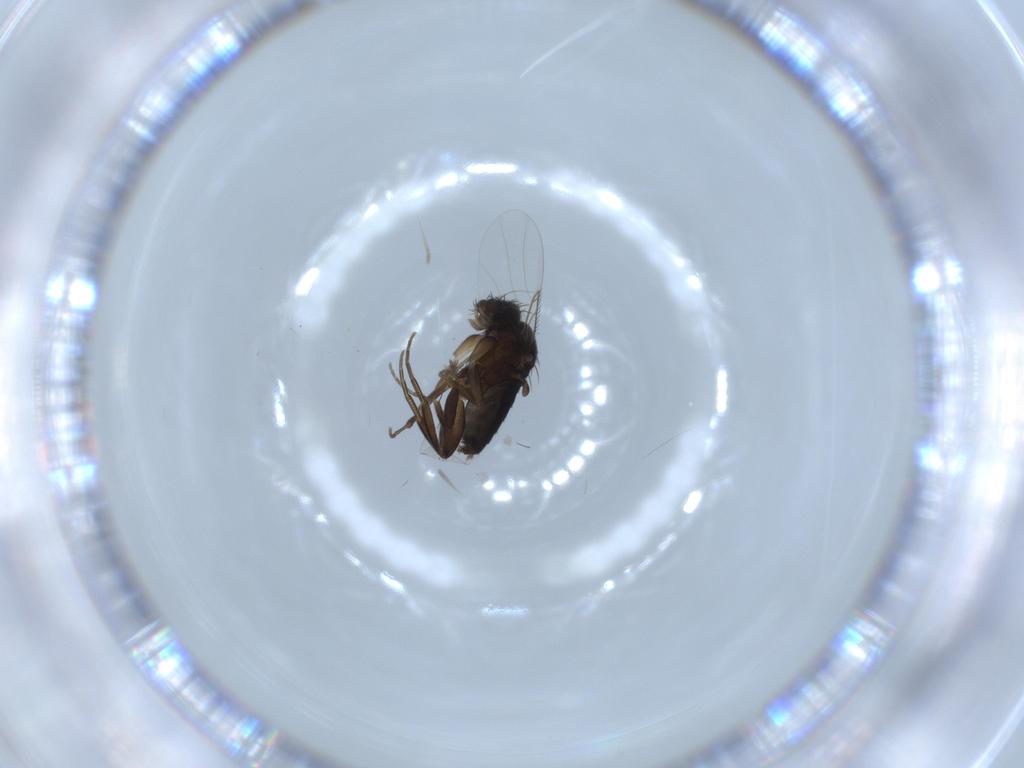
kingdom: Animalia
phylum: Arthropoda
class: Insecta
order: Diptera
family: Phoridae
